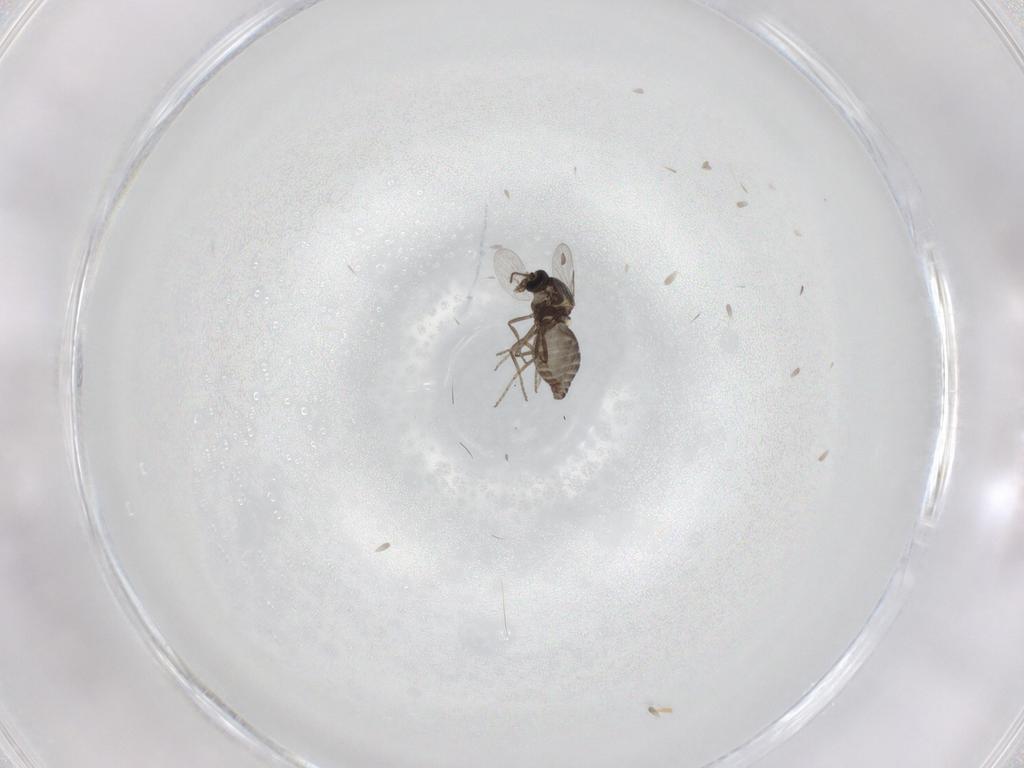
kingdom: Animalia
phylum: Arthropoda
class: Insecta
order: Diptera
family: Ceratopogonidae
